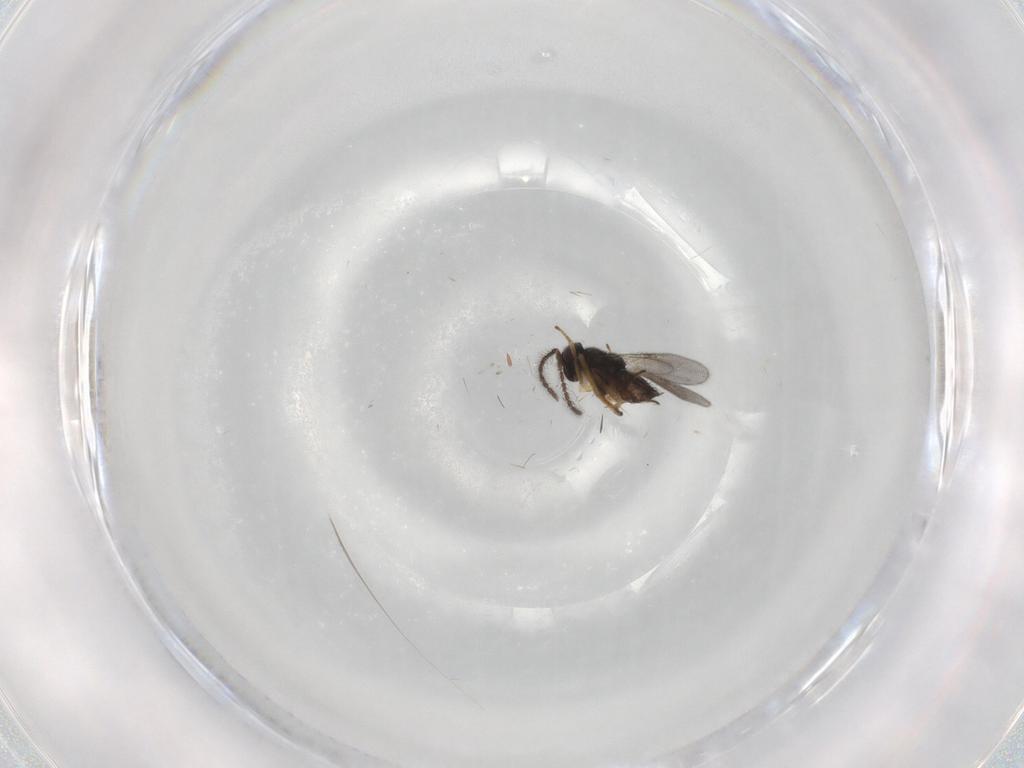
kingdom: Animalia
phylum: Arthropoda
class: Insecta
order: Hymenoptera
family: Encyrtidae
